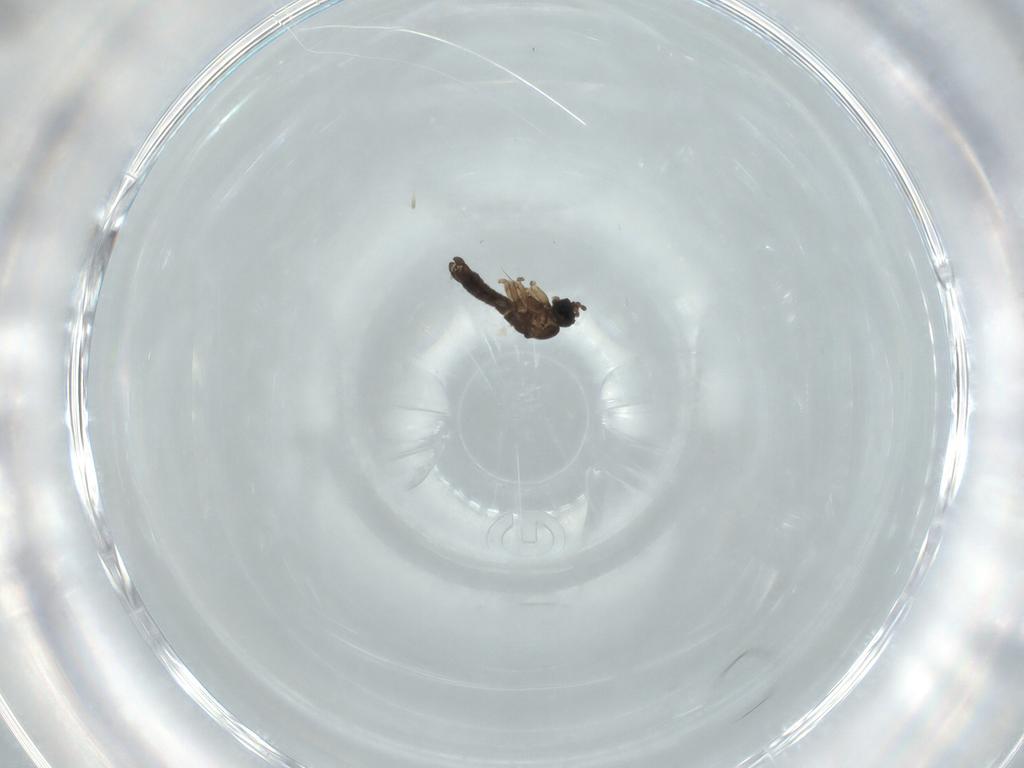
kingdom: Animalia
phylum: Arthropoda
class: Insecta
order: Diptera
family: Sciaridae
